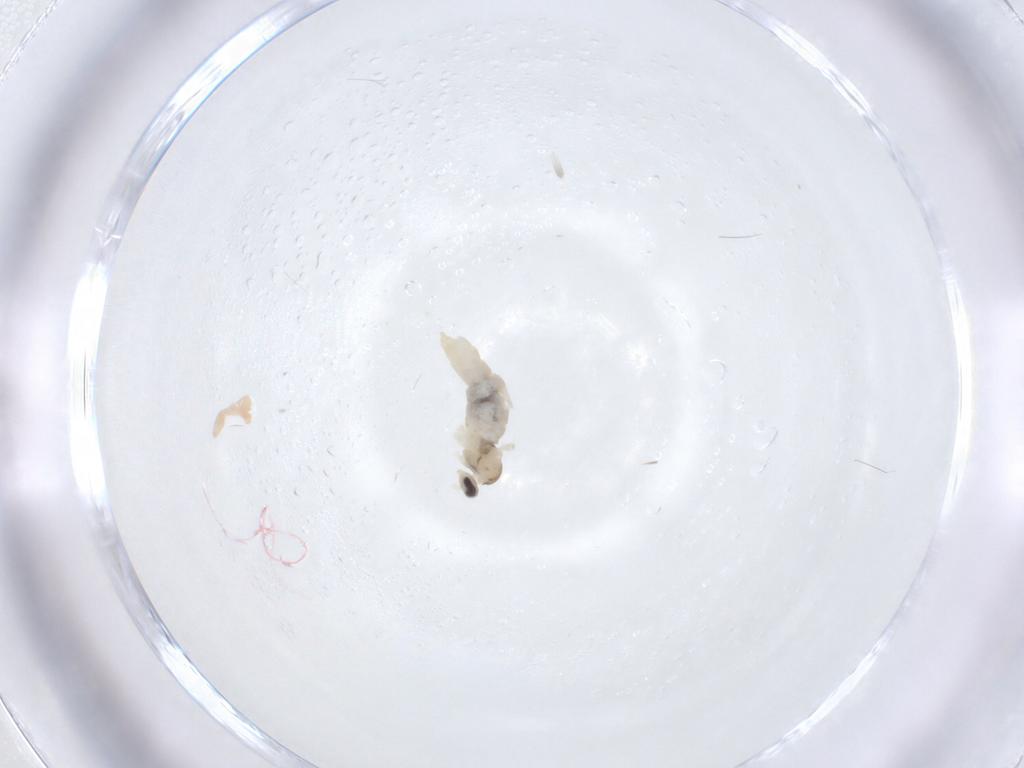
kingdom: Animalia
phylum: Arthropoda
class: Insecta
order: Diptera
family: Cecidomyiidae
